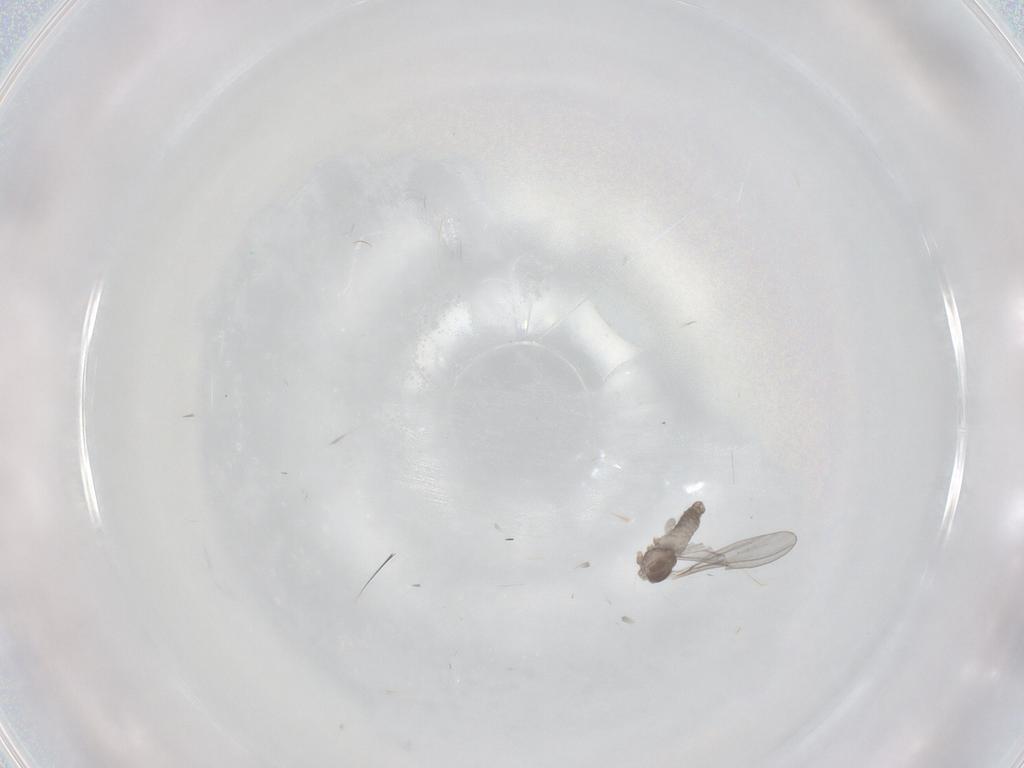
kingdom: Animalia
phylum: Arthropoda
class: Insecta
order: Diptera
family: Cecidomyiidae
